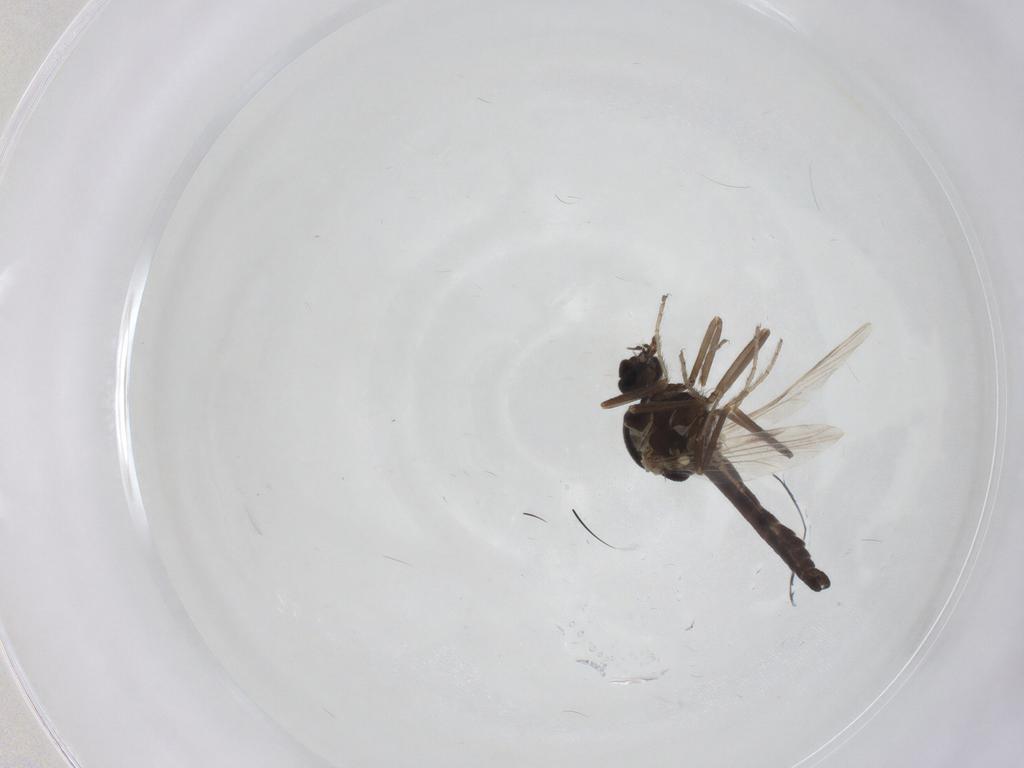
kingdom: Animalia
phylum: Arthropoda
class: Insecta
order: Diptera
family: Ceratopogonidae
